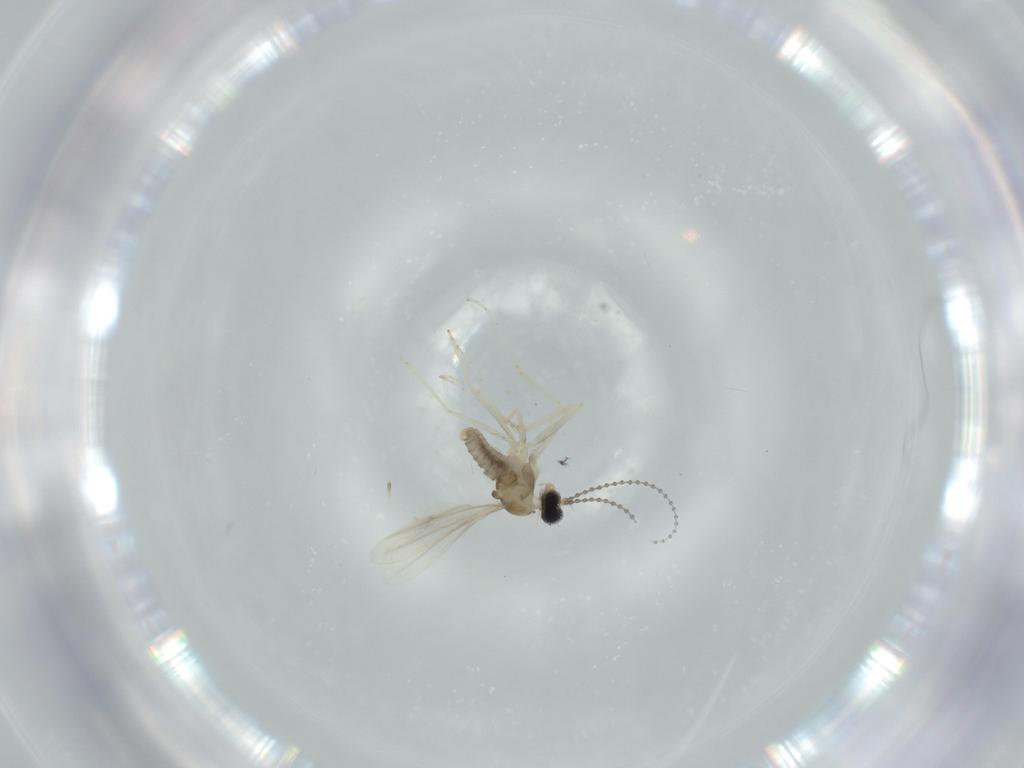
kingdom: Animalia
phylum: Arthropoda
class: Insecta
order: Diptera
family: Cecidomyiidae
